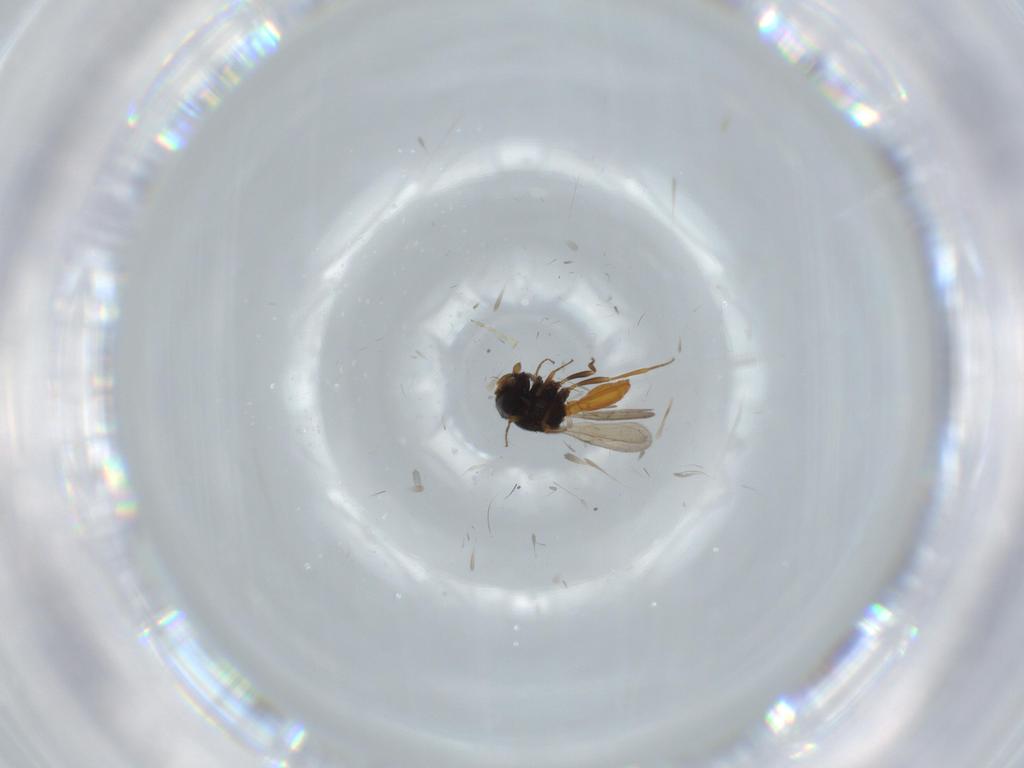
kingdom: Animalia
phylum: Arthropoda
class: Insecta
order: Hymenoptera
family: Scelionidae
